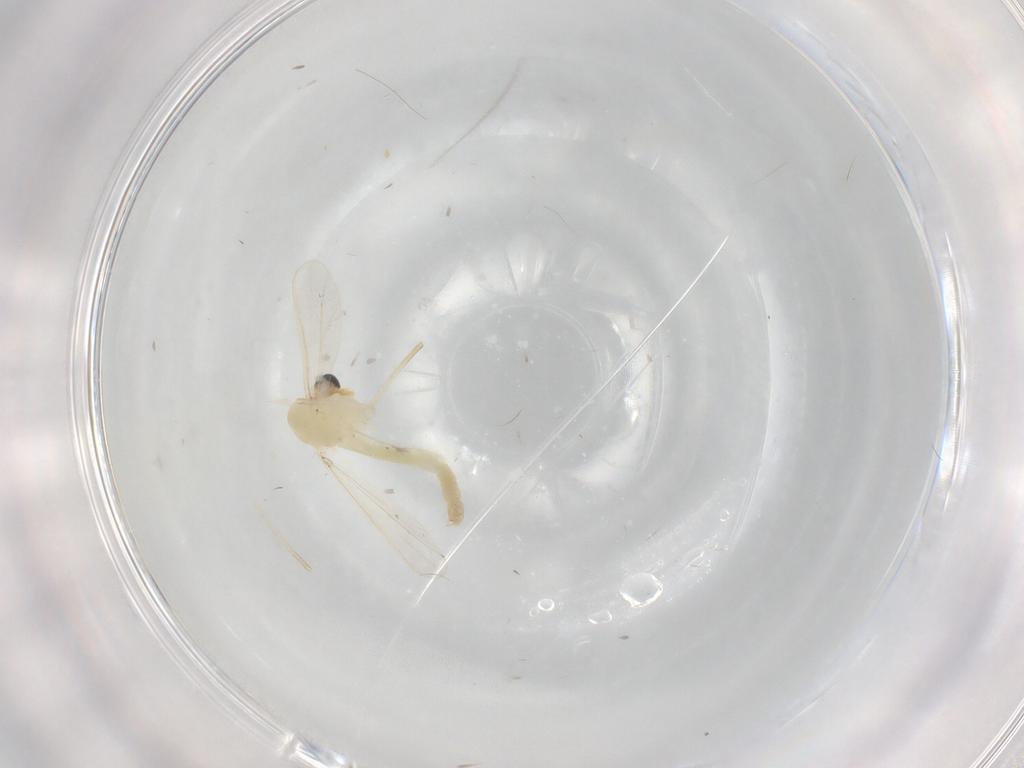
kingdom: Animalia
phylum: Arthropoda
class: Insecta
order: Diptera
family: Chironomidae
